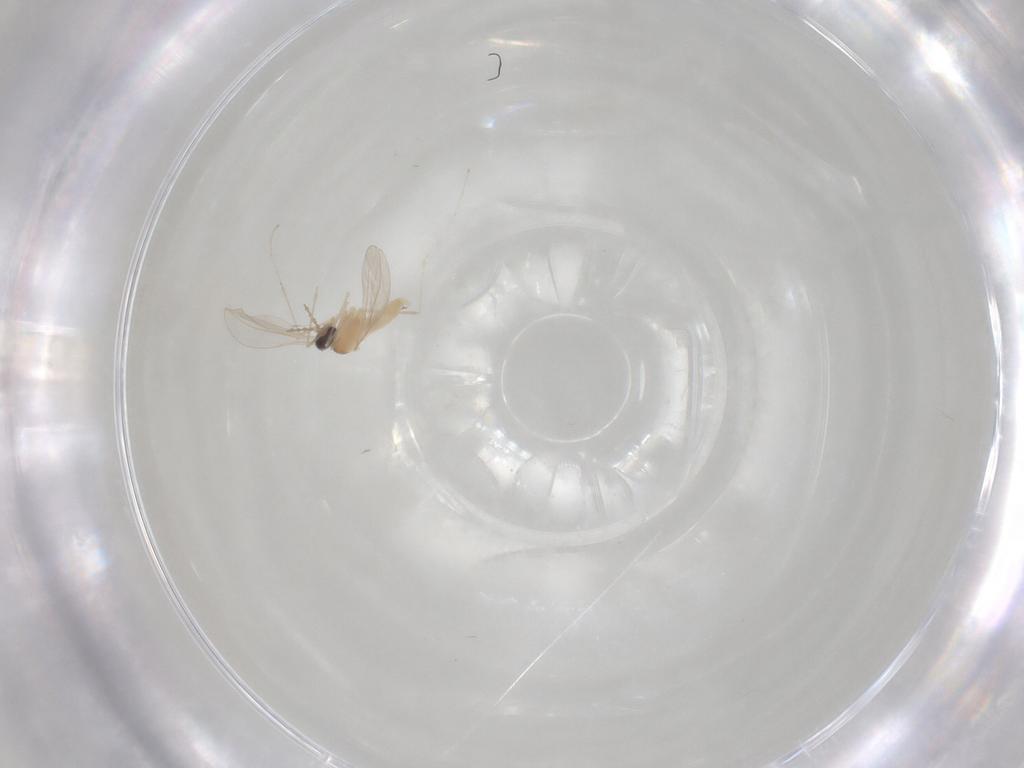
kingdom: Animalia
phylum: Arthropoda
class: Insecta
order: Diptera
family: Cecidomyiidae
